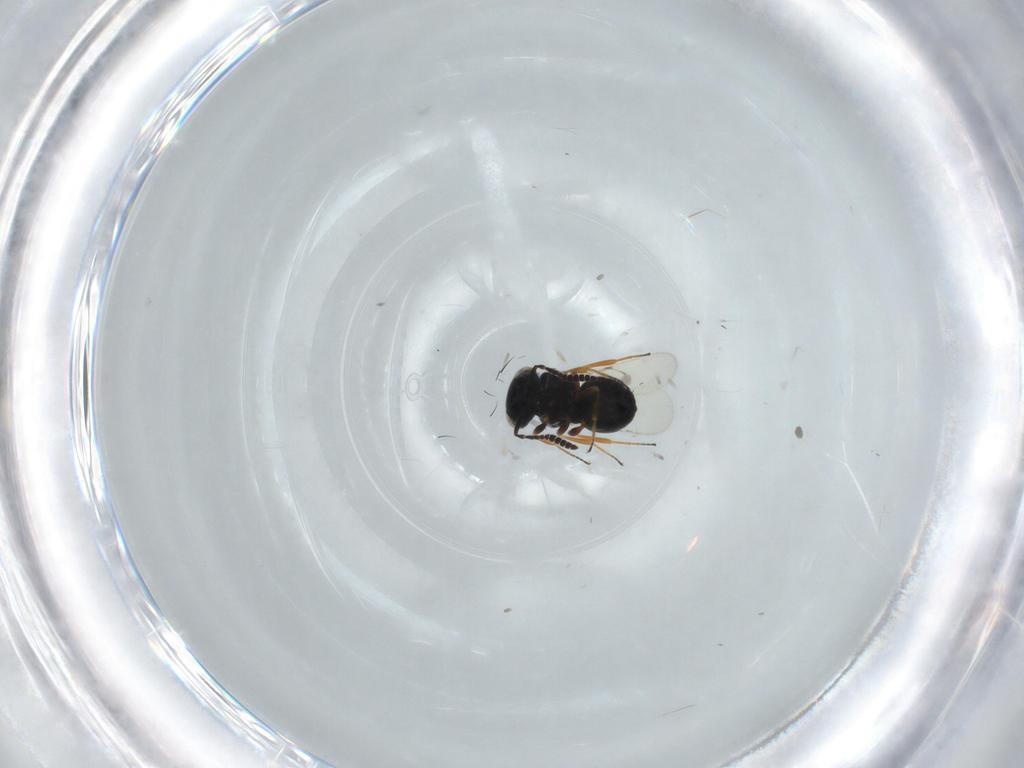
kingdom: Animalia
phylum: Arthropoda
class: Insecta
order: Hymenoptera
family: Scelionidae
